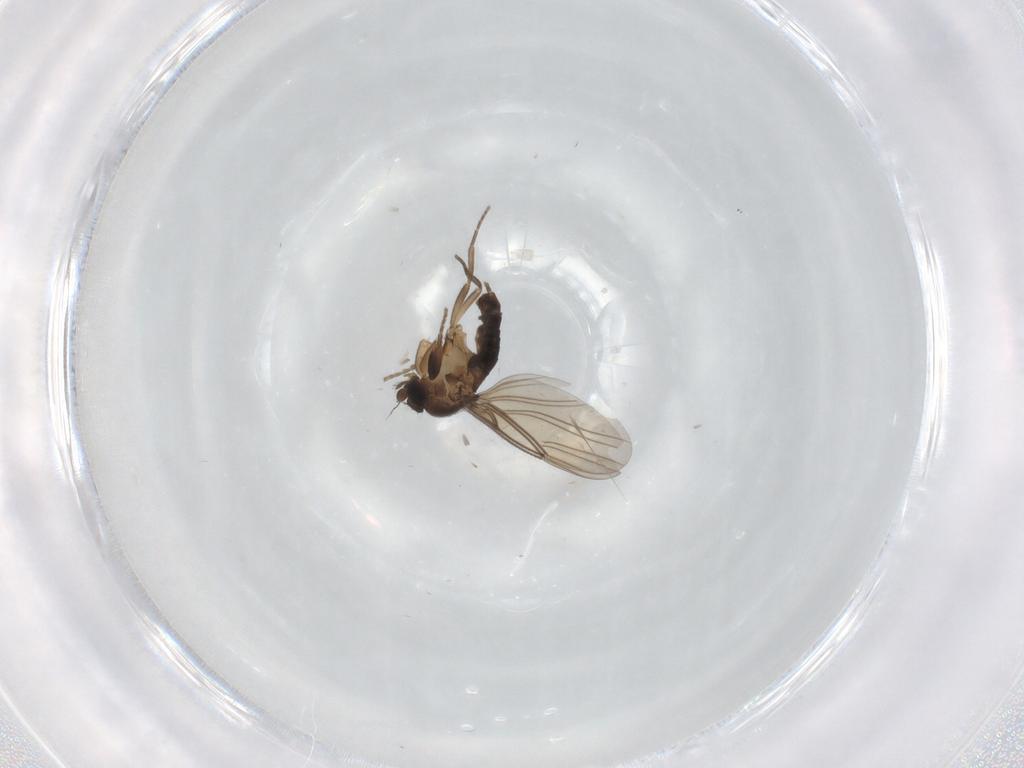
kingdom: Animalia
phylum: Arthropoda
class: Insecta
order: Diptera
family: Phoridae
